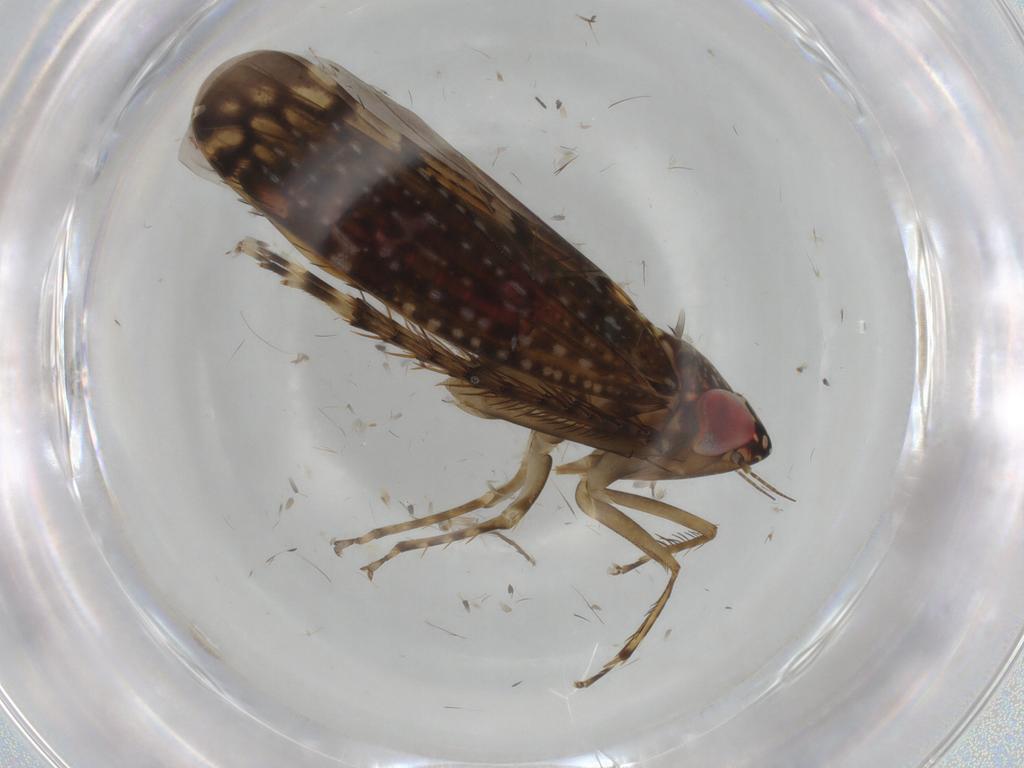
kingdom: Animalia
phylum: Arthropoda
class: Insecta
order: Hemiptera
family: Cicadellidae
